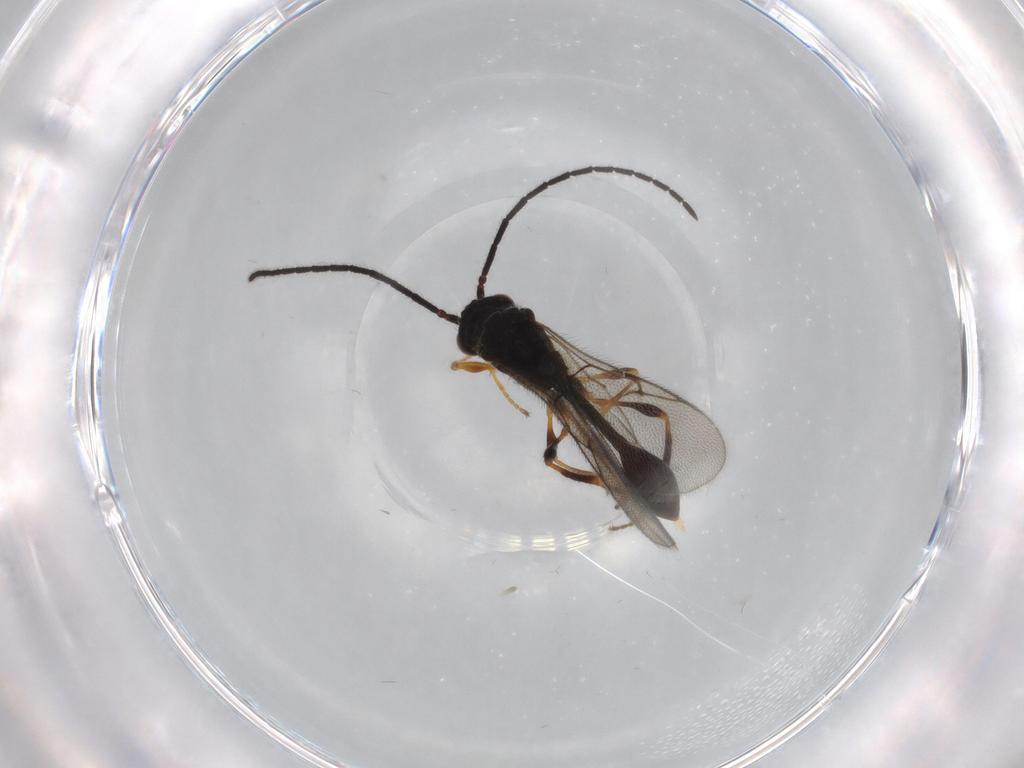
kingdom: Animalia
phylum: Arthropoda
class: Insecta
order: Hymenoptera
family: Diapriidae
